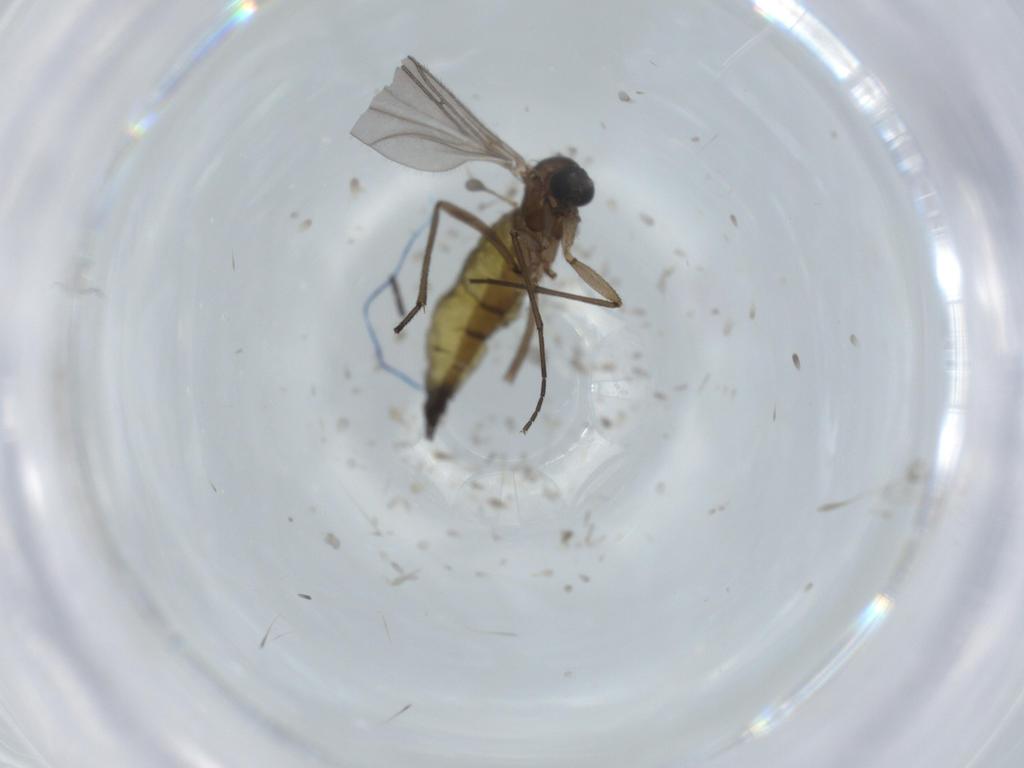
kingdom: Animalia
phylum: Arthropoda
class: Insecta
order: Diptera
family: Sciaridae
